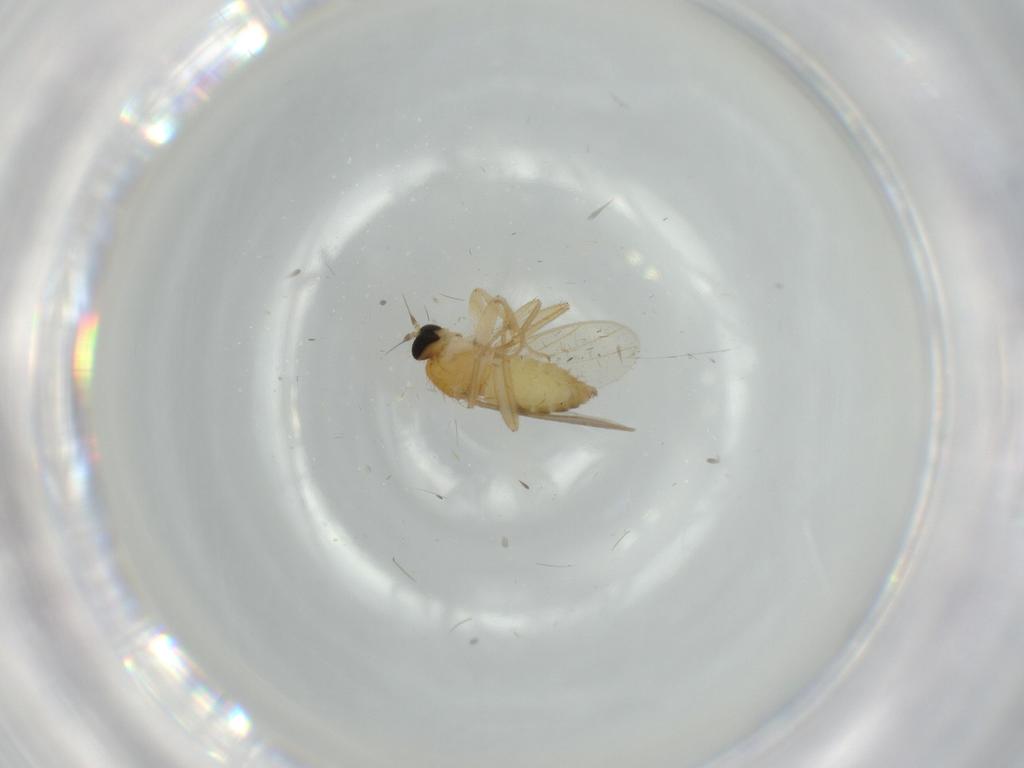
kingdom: Animalia
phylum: Arthropoda
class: Insecta
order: Diptera
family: Hybotidae
